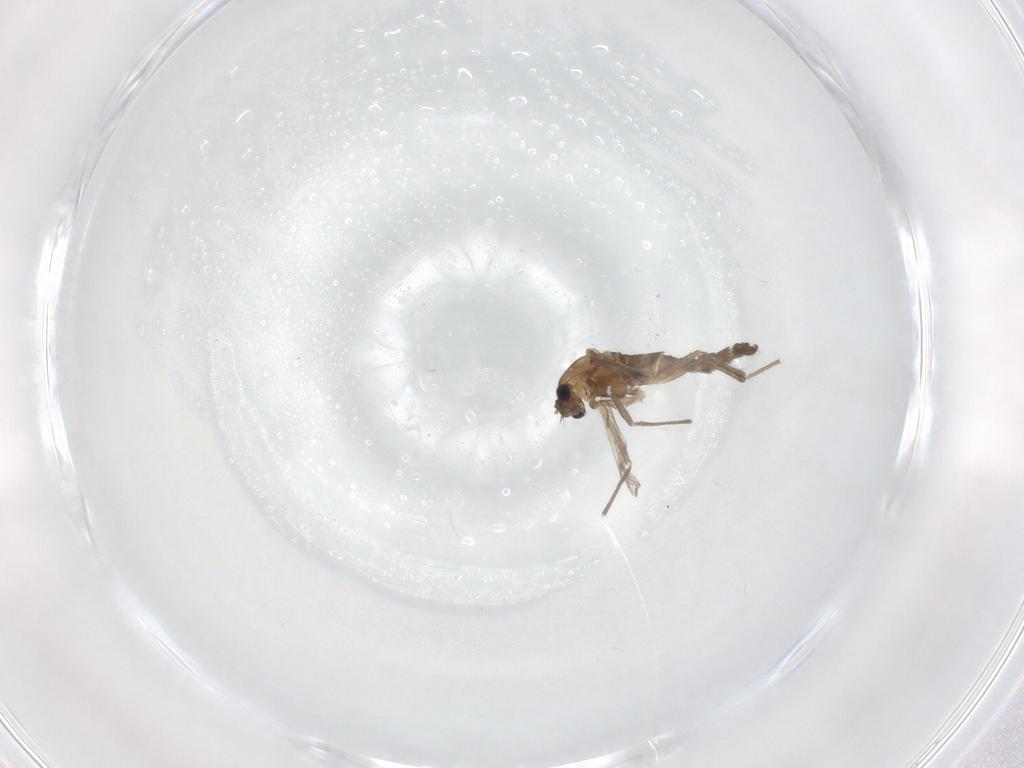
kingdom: Animalia
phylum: Arthropoda
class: Insecta
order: Diptera
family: Chironomidae
